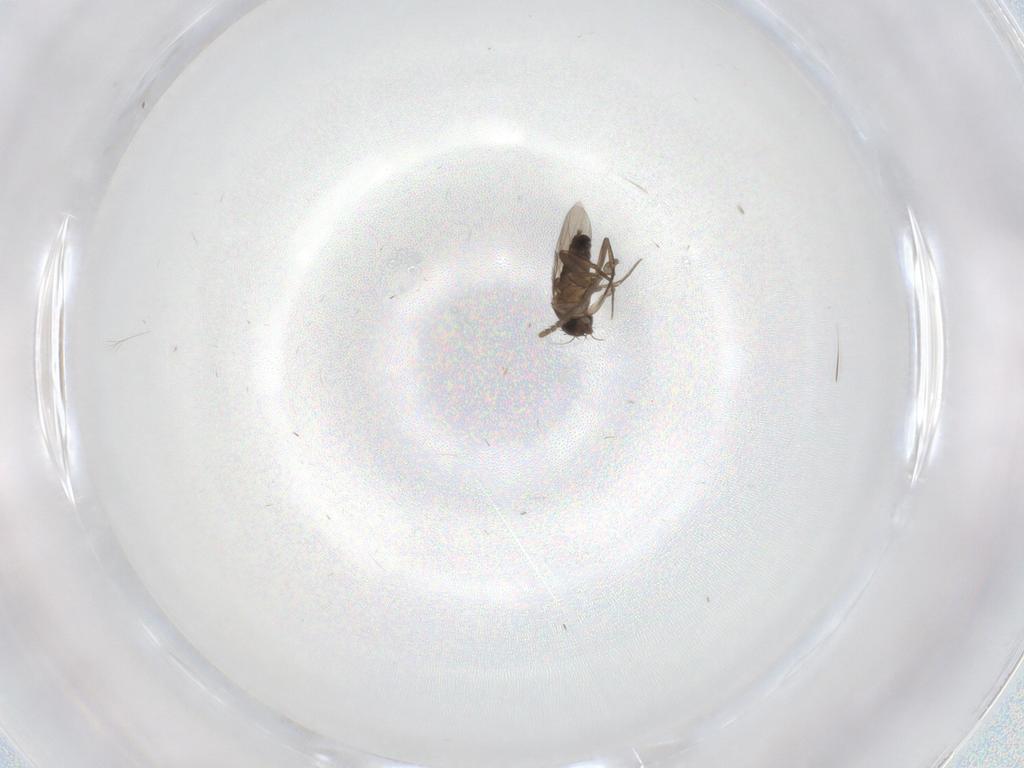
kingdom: Animalia
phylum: Arthropoda
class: Insecta
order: Diptera
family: Phoridae
